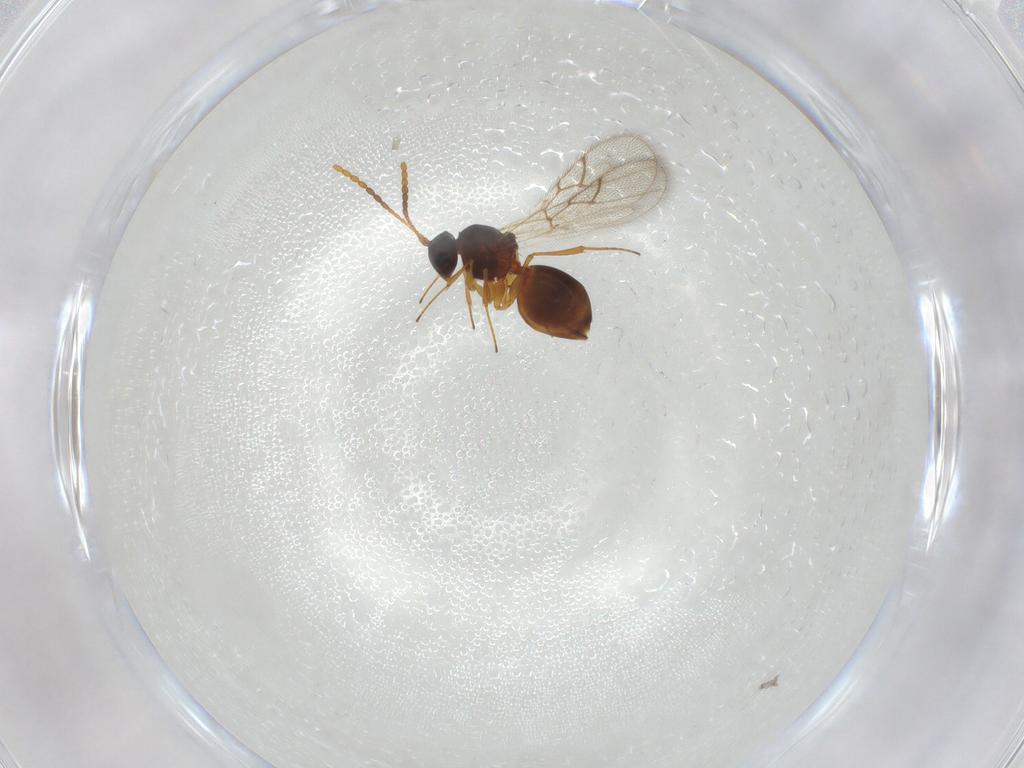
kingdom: Animalia
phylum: Arthropoda
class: Insecta
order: Hymenoptera
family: Figitidae
